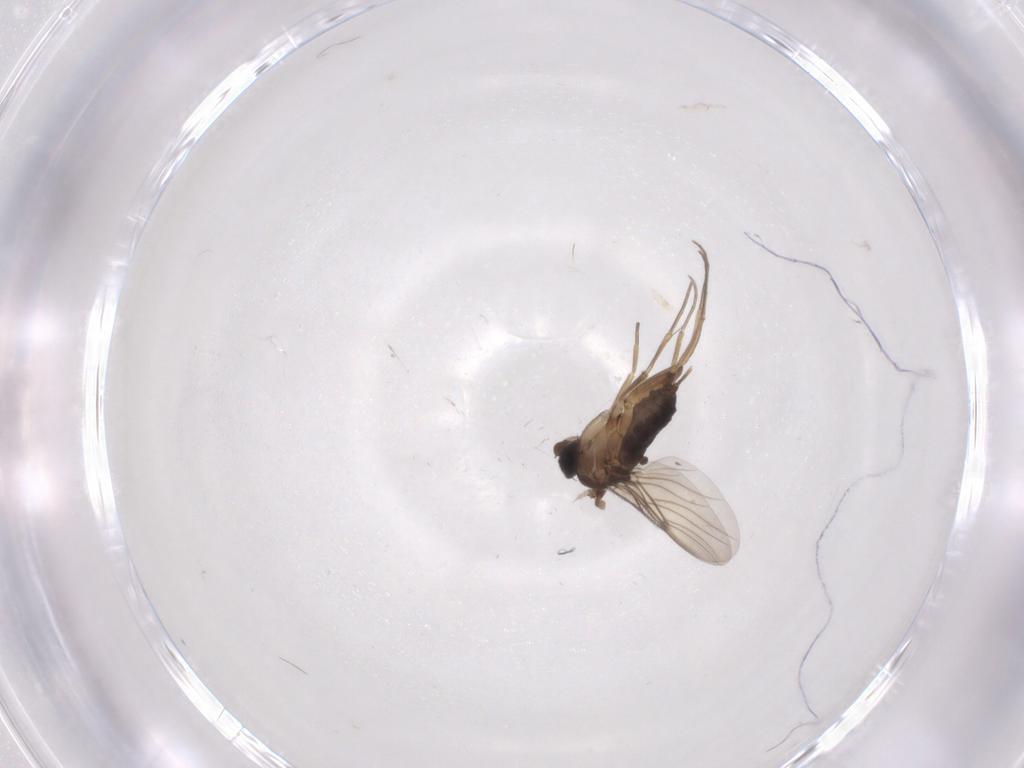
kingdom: Animalia
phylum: Arthropoda
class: Insecta
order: Diptera
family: Phoridae
